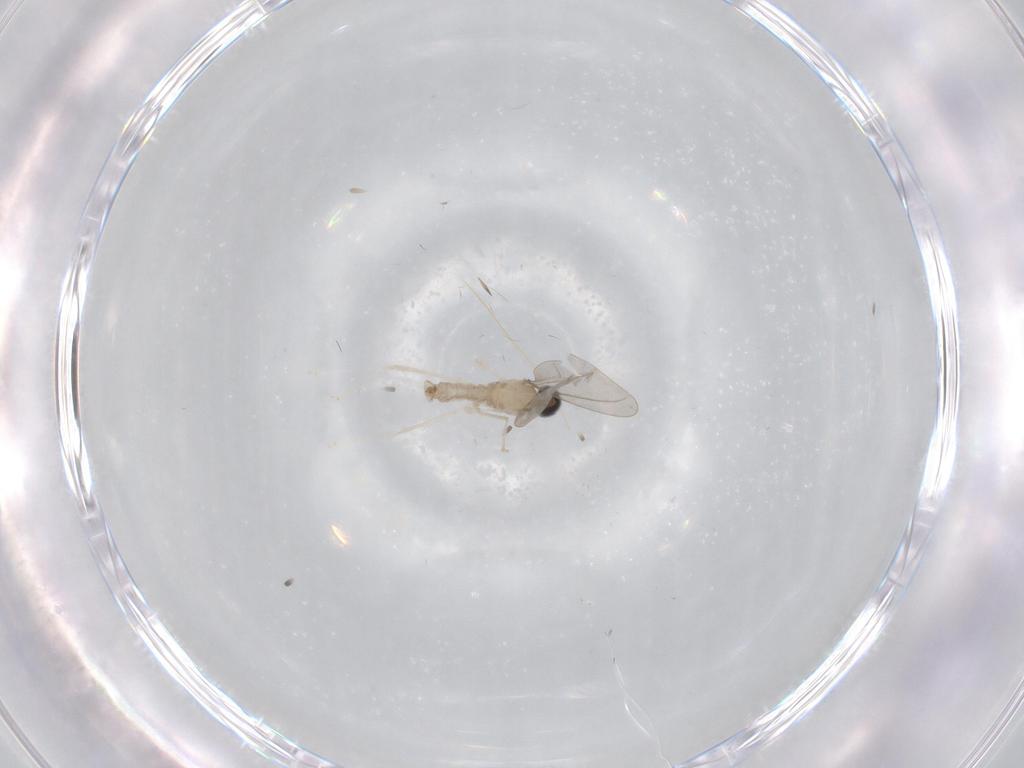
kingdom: Animalia
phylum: Arthropoda
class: Insecta
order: Diptera
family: Cecidomyiidae
